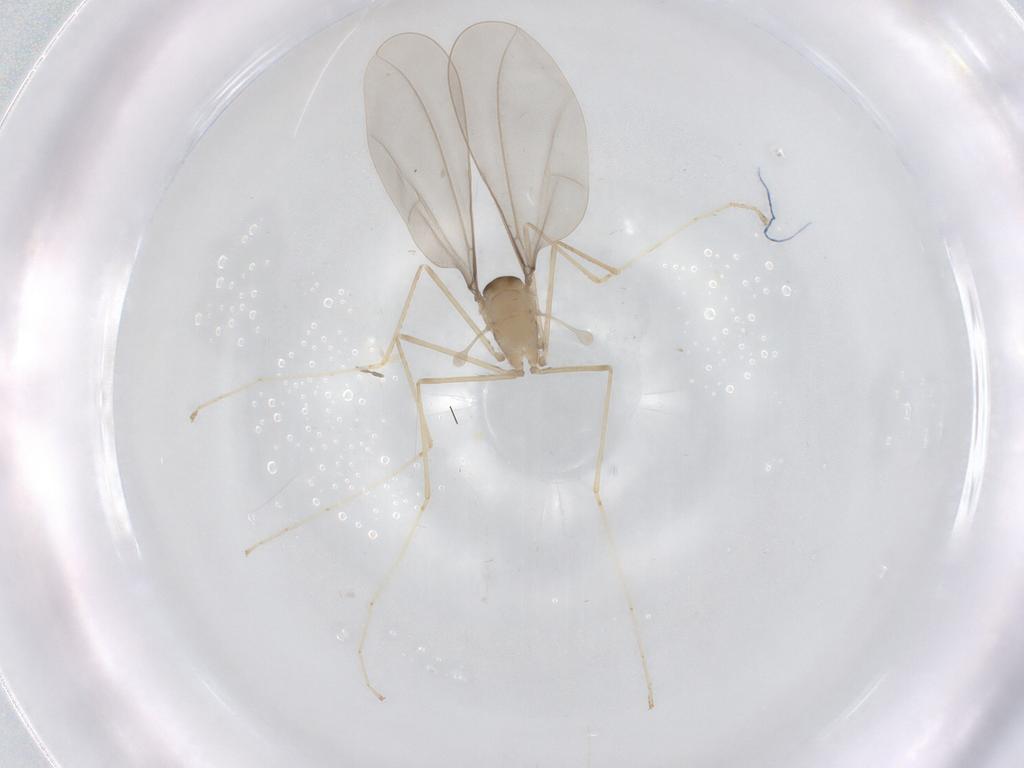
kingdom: Animalia
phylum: Arthropoda
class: Insecta
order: Diptera
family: Cecidomyiidae
